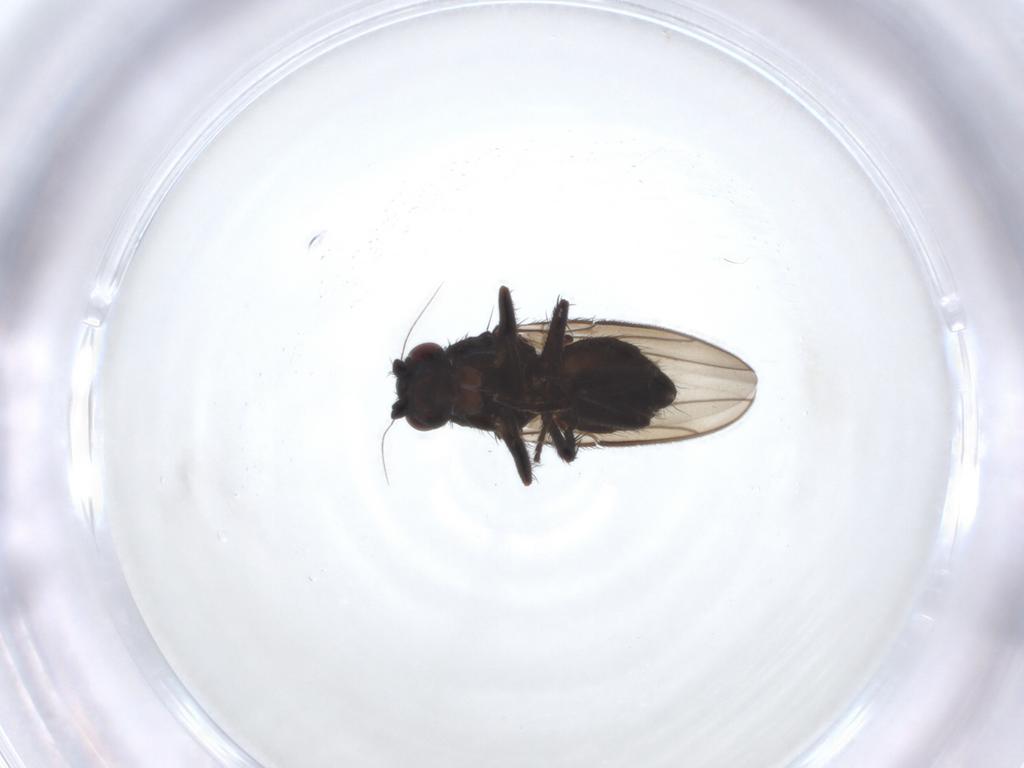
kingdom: Animalia
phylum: Arthropoda
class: Insecta
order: Diptera
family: Sphaeroceridae
